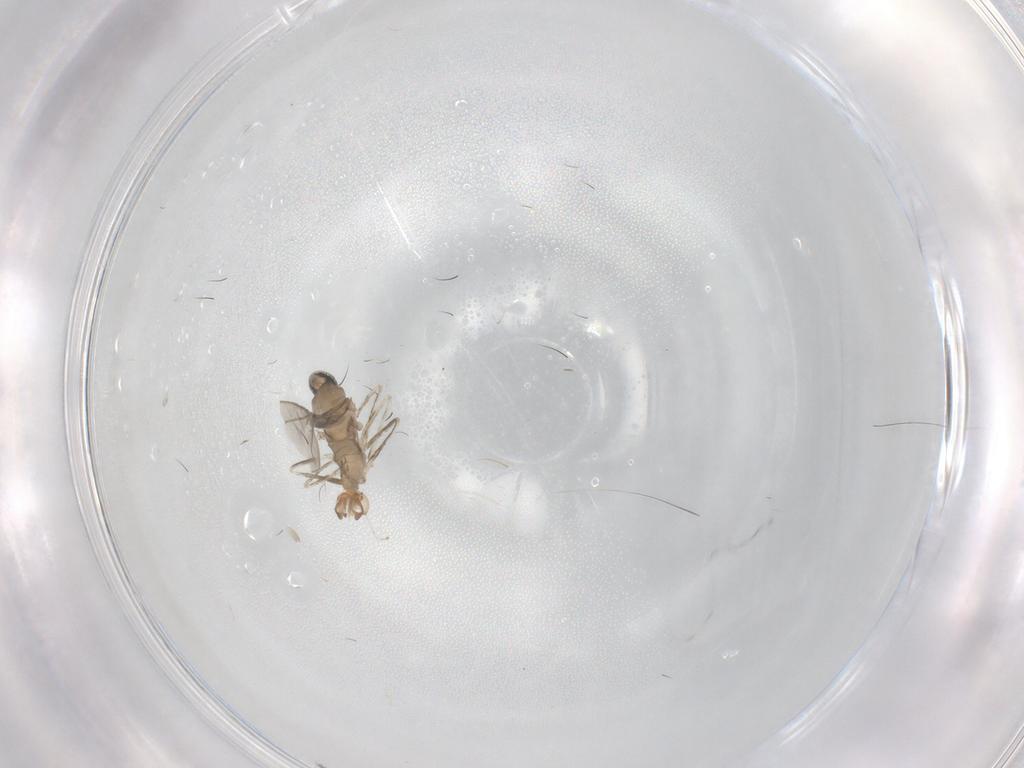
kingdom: Animalia
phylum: Arthropoda
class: Insecta
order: Diptera
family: Cecidomyiidae
